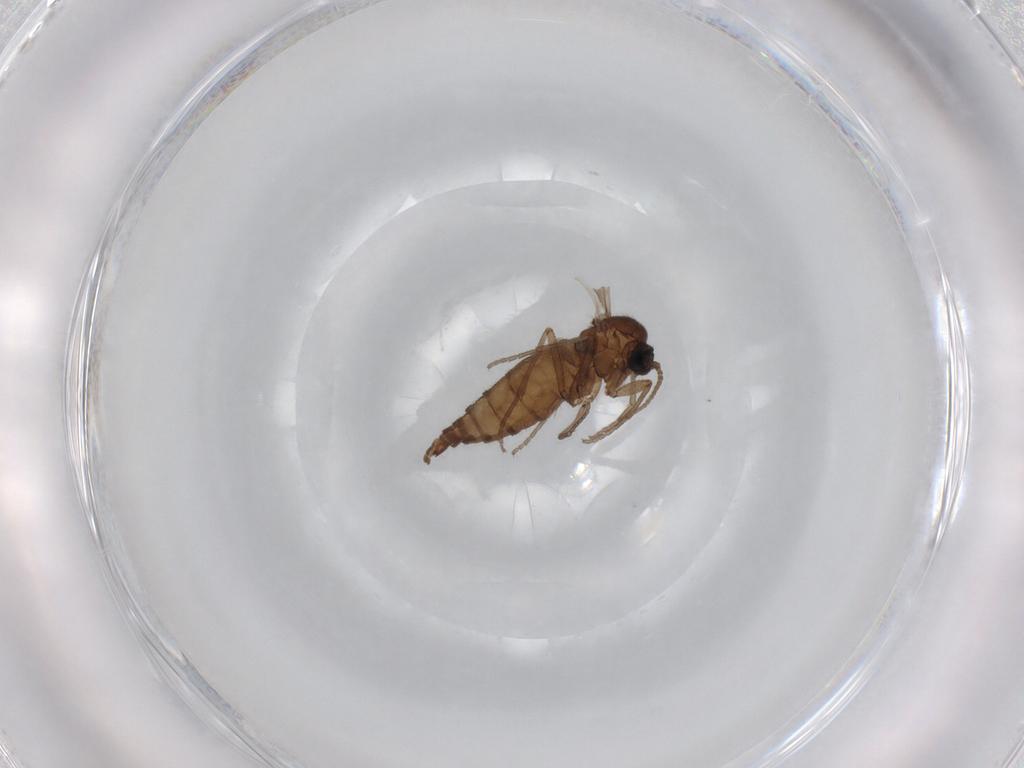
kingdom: Animalia
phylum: Arthropoda
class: Insecta
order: Diptera
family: Sciaridae
